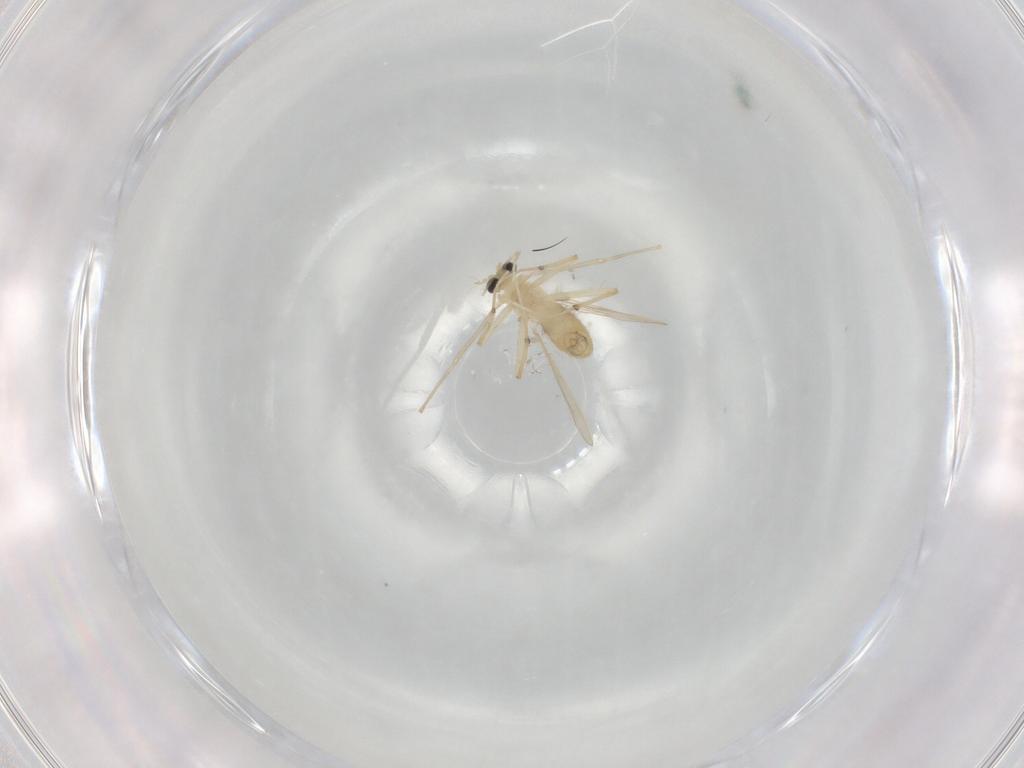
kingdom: Animalia
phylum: Arthropoda
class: Insecta
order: Diptera
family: Chironomidae
